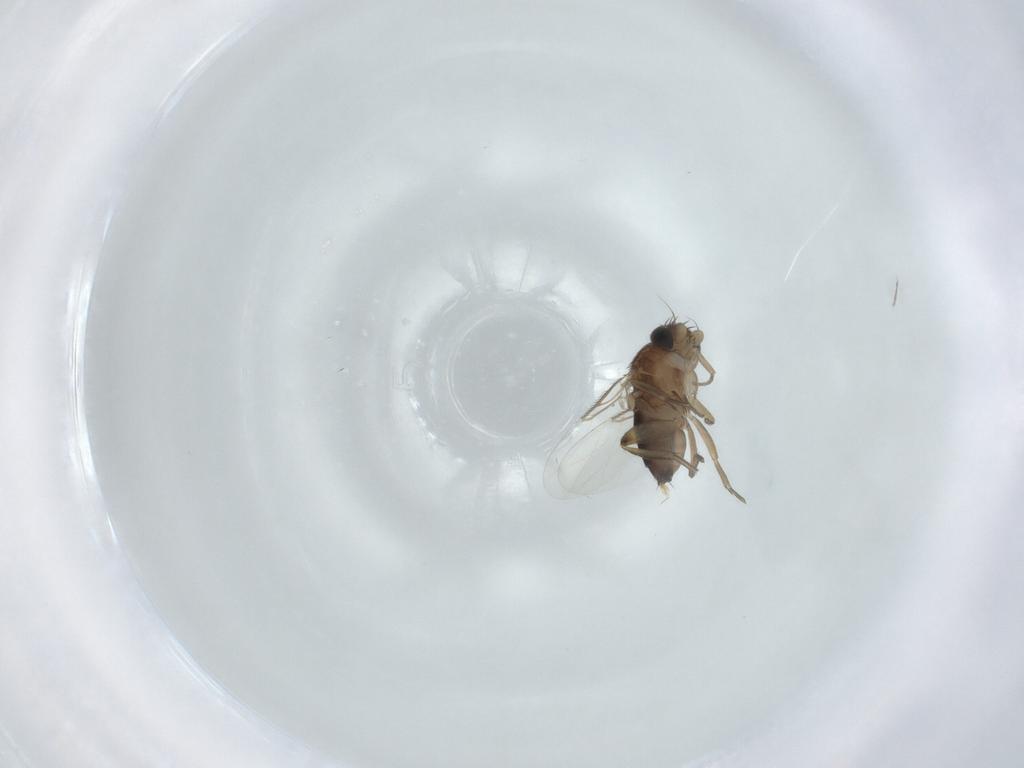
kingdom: Animalia
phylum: Arthropoda
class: Insecta
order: Diptera
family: Phoridae
